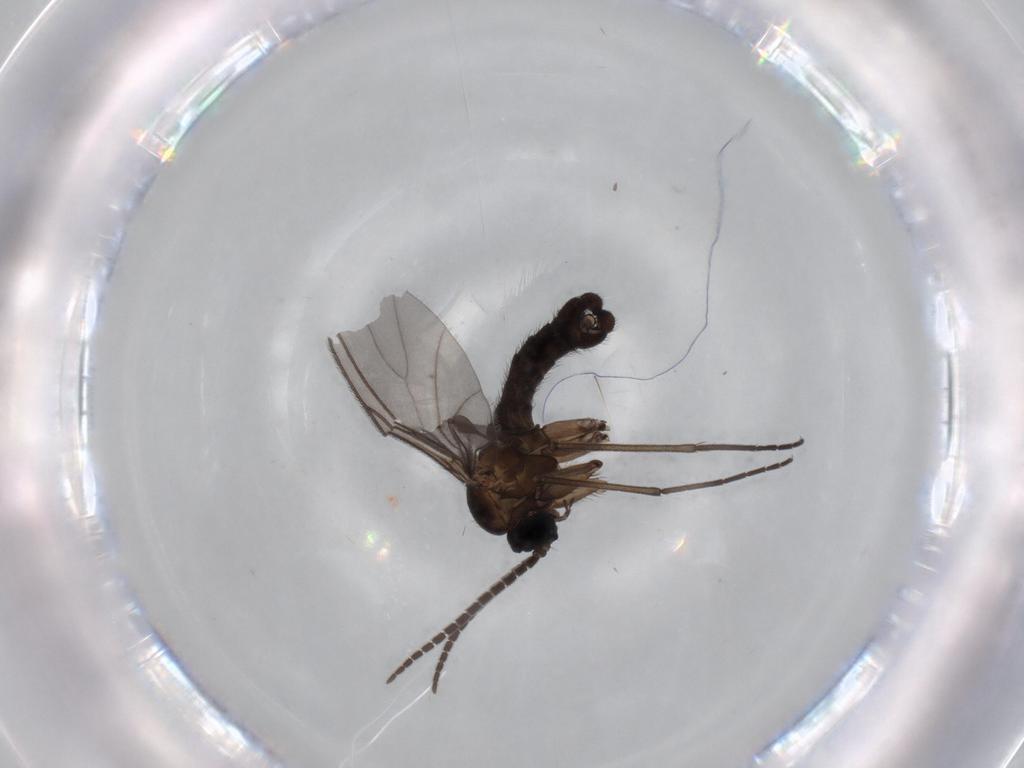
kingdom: Animalia
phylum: Arthropoda
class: Insecta
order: Diptera
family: Sciaridae
